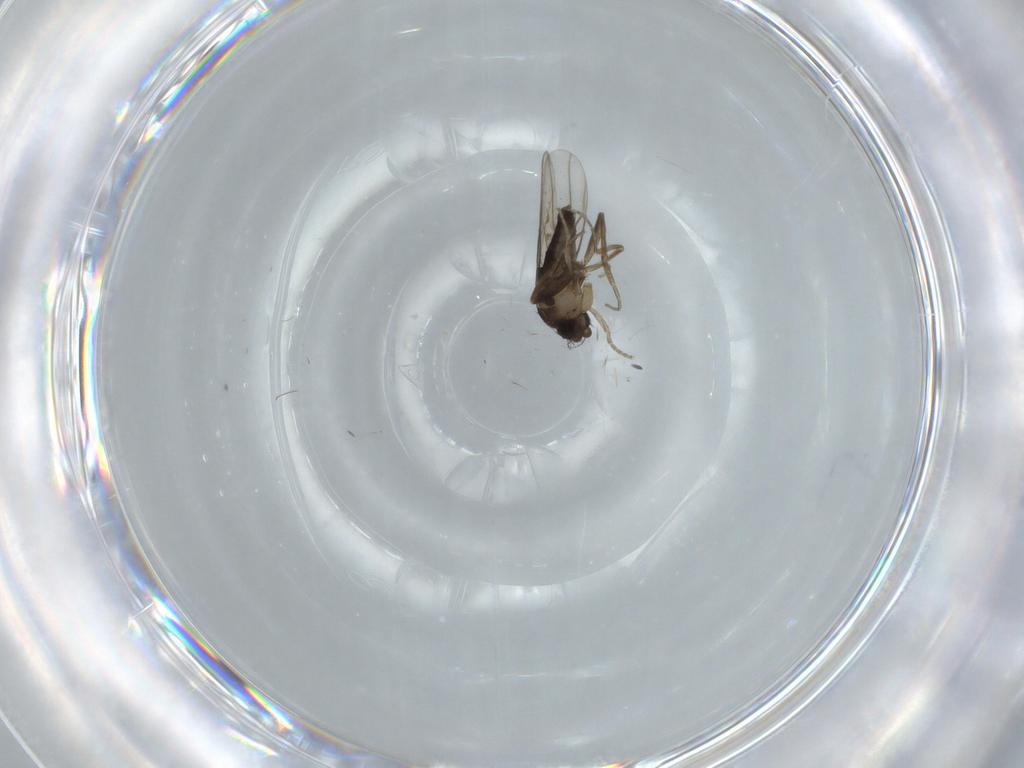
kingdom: Animalia
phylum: Arthropoda
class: Insecta
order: Diptera
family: Phoridae
